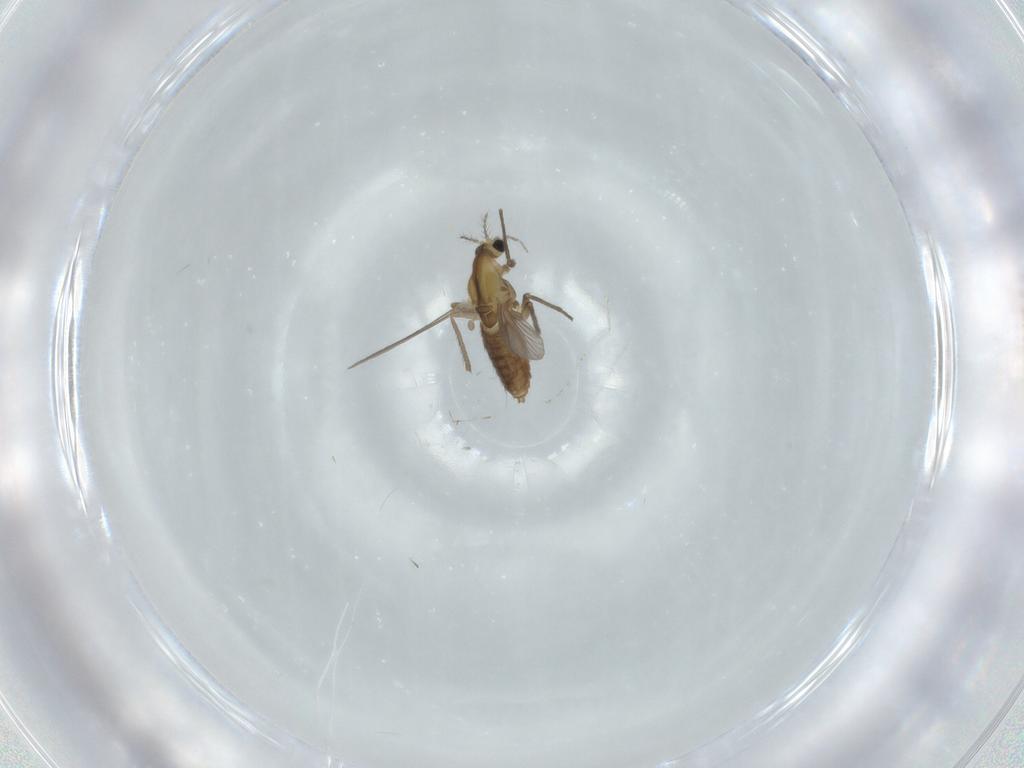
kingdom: Animalia
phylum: Arthropoda
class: Insecta
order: Diptera
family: Chironomidae
